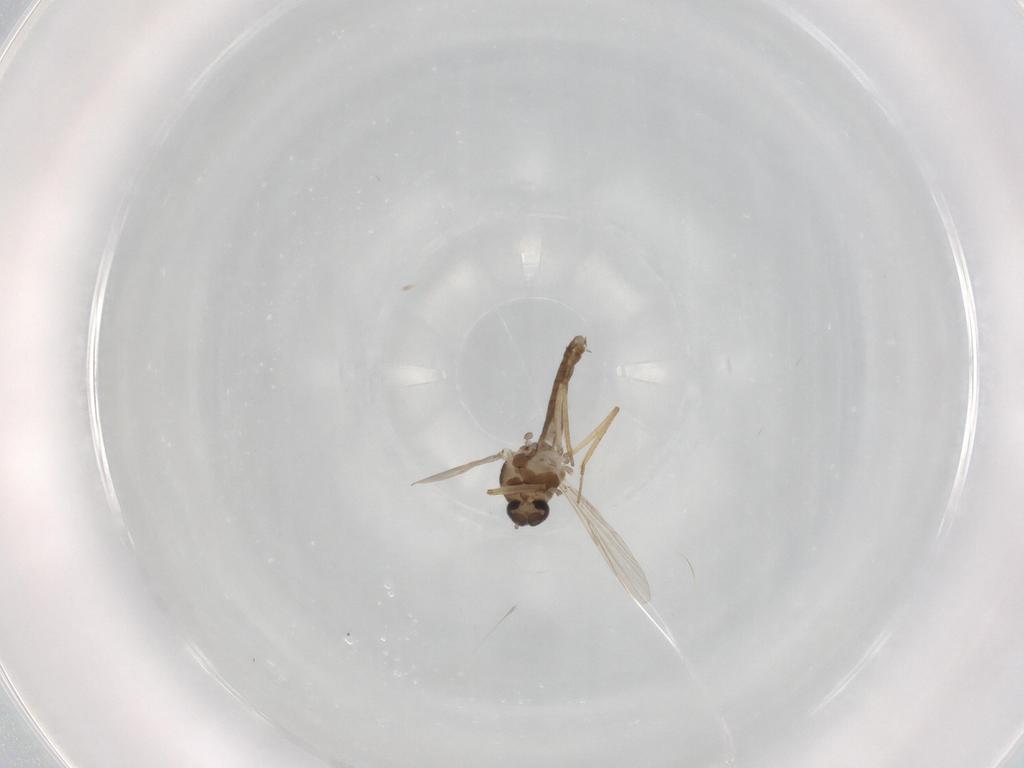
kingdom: Animalia
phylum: Arthropoda
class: Insecta
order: Diptera
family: Ceratopogonidae
